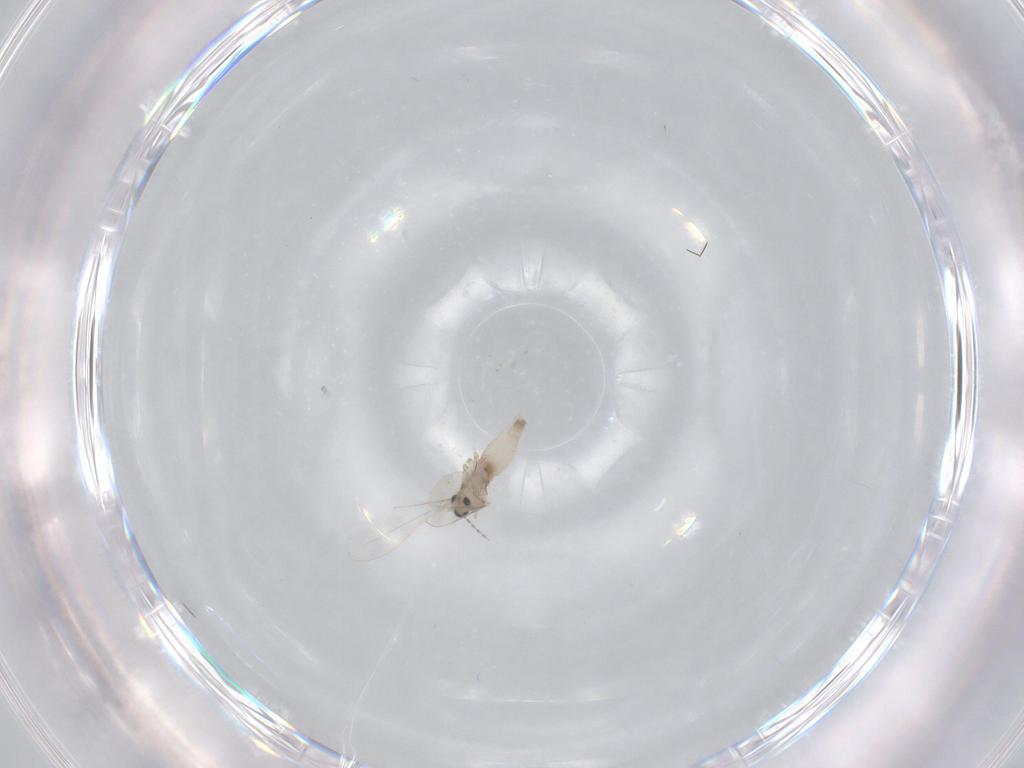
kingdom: Animalia
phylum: Arthropoda
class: Insecta
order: Diptera
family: Cecidomyiidae
